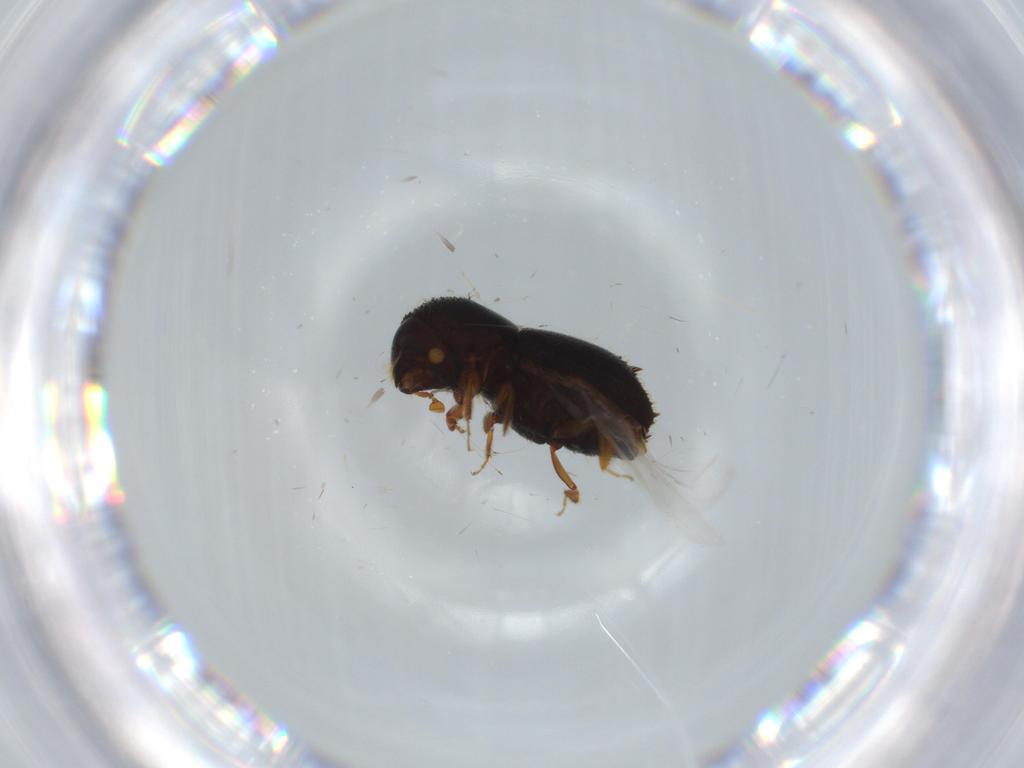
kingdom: Animalia
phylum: Arthropoda
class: Insecta
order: Coleoptera
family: Curculionidae
